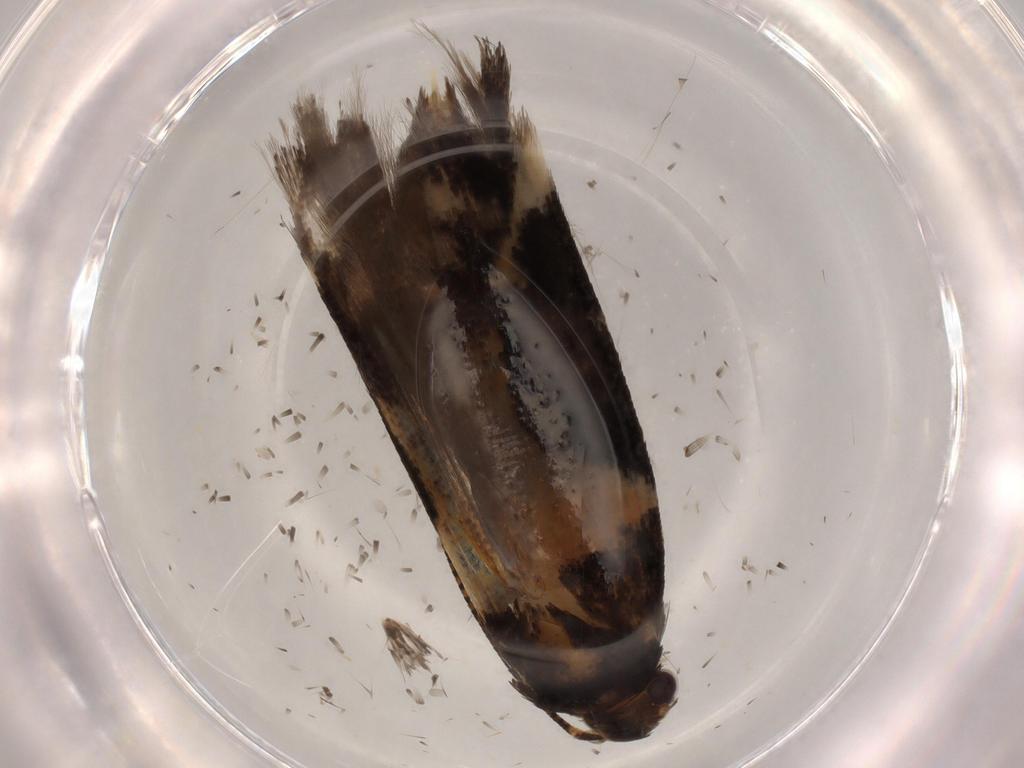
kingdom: Animalia
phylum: Arthropoda
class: Insecta
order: Lepidoptera
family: Gelechiidae
